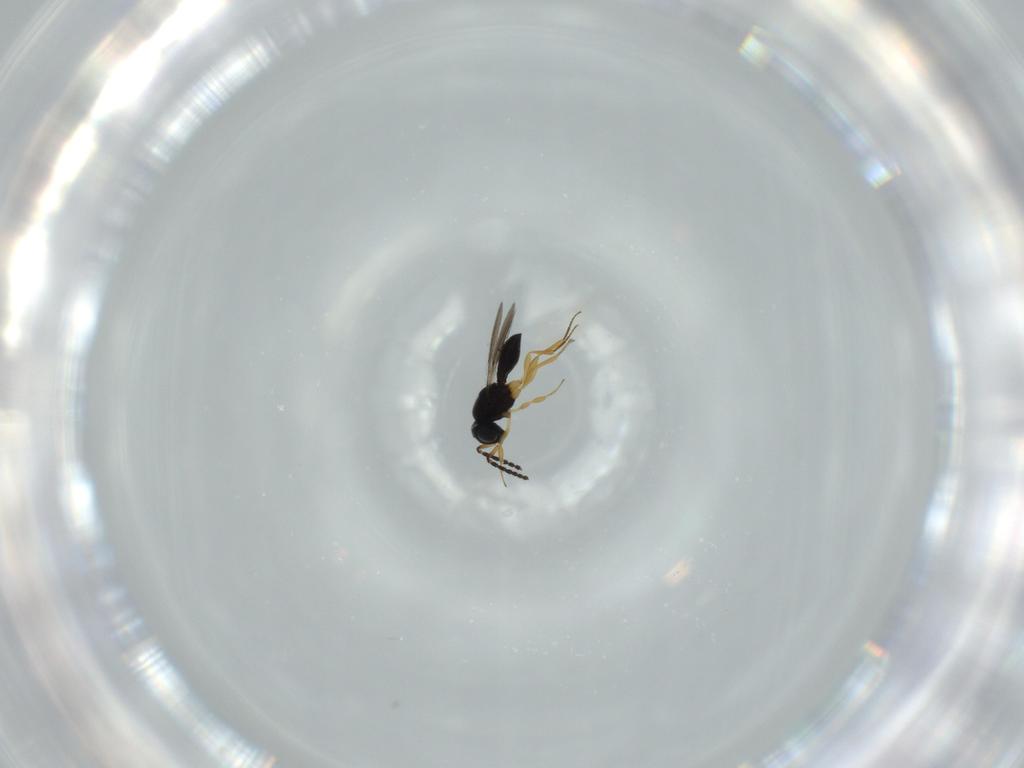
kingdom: Animalia
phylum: Arthropoda
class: Insecta
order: Hymenoptera
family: Scelionidae
